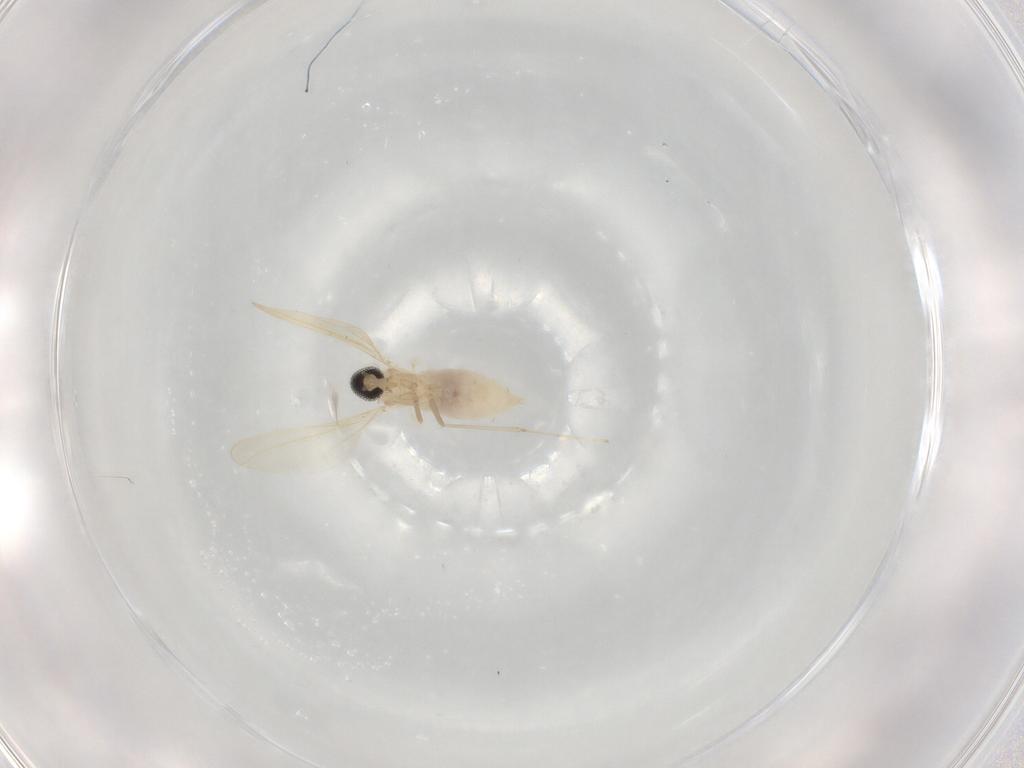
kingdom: Animalia
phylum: Arthropoda
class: Insecta
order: Diptera
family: Cecidomyiidae
